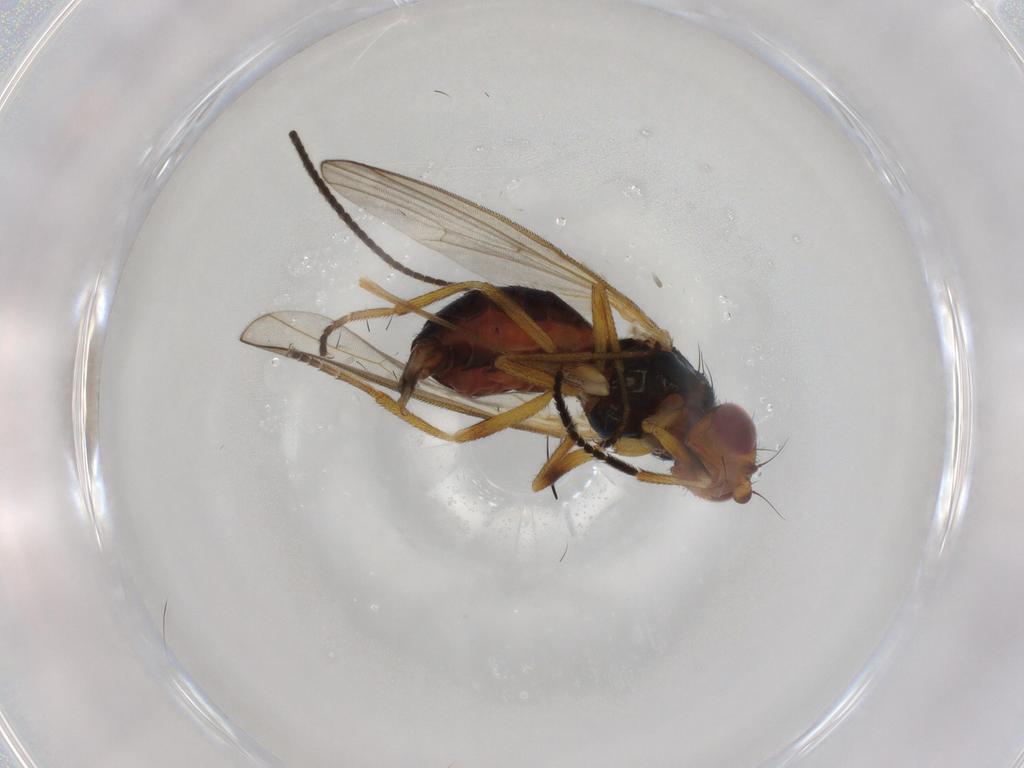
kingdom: Animalia
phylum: Arthropoda
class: Insecta
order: Diptera
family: Piophilidae
